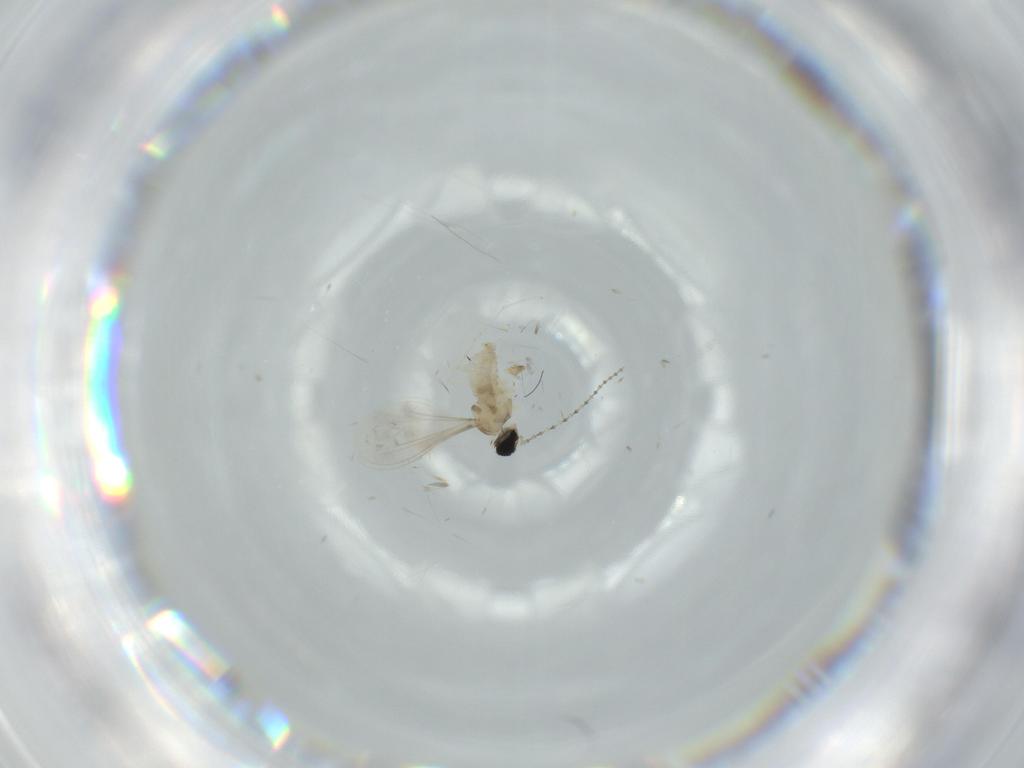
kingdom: Animalia
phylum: Arthropoda
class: Insecta
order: Diptera
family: Cecidomyiidae
